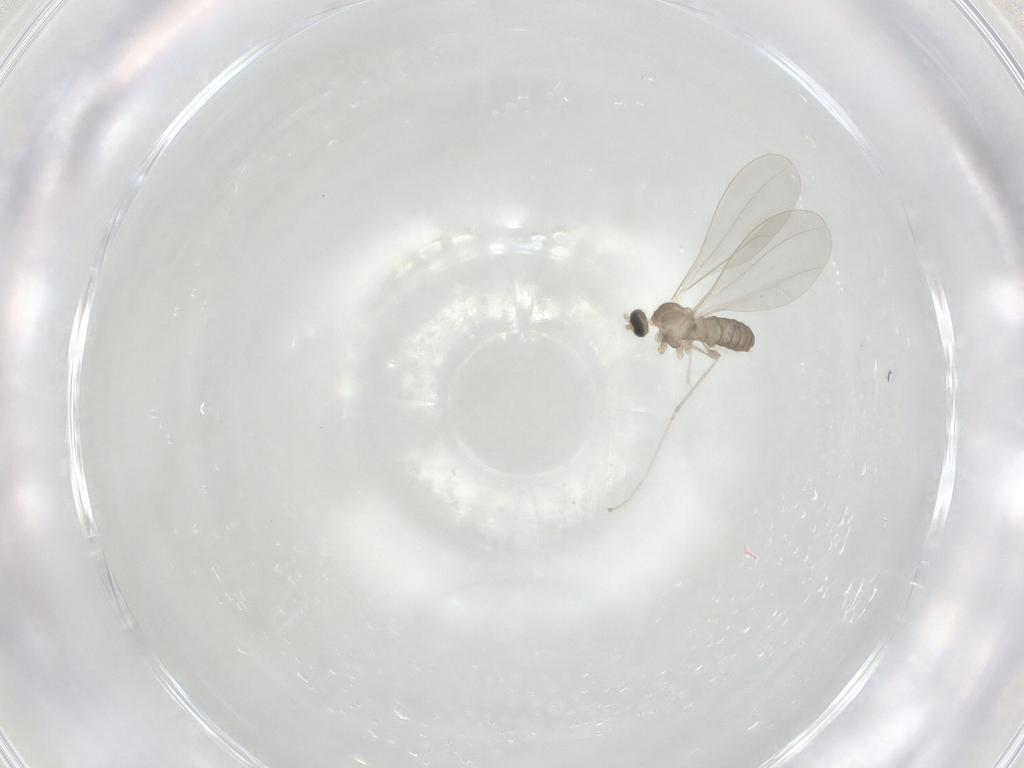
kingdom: Animalia
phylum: Arthropoda
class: Insecta
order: Diptera
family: Cecidomyiidae
